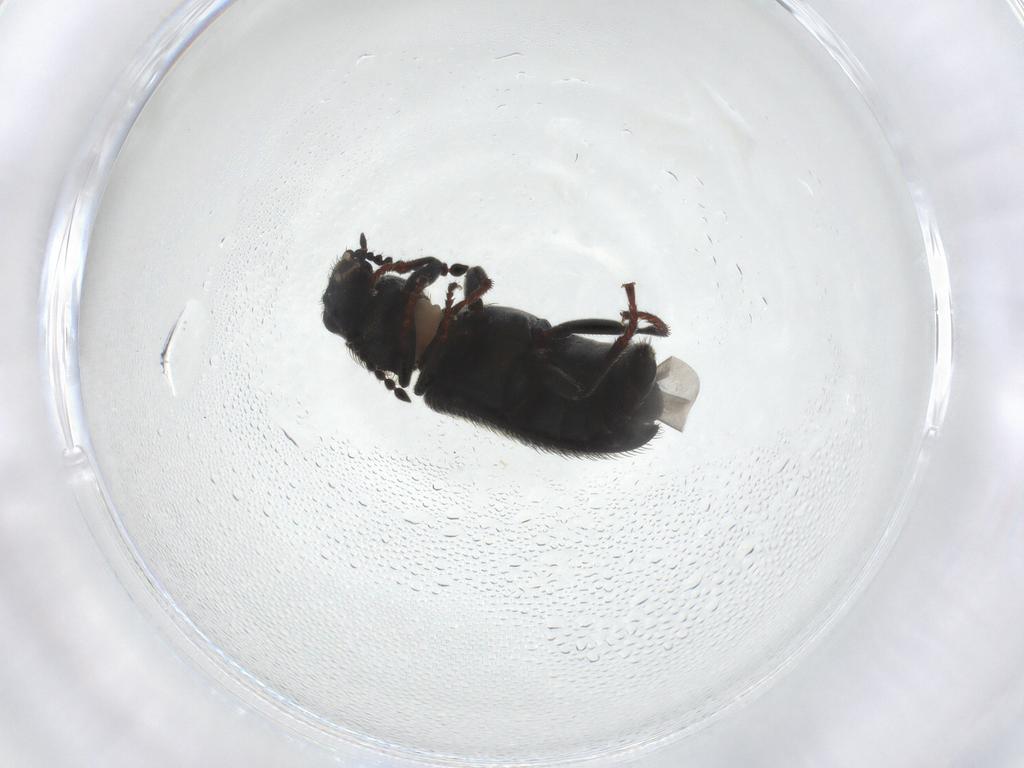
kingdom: Animalia
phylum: Arthropoda
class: Insecta
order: Coleoptera
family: Melyridae
